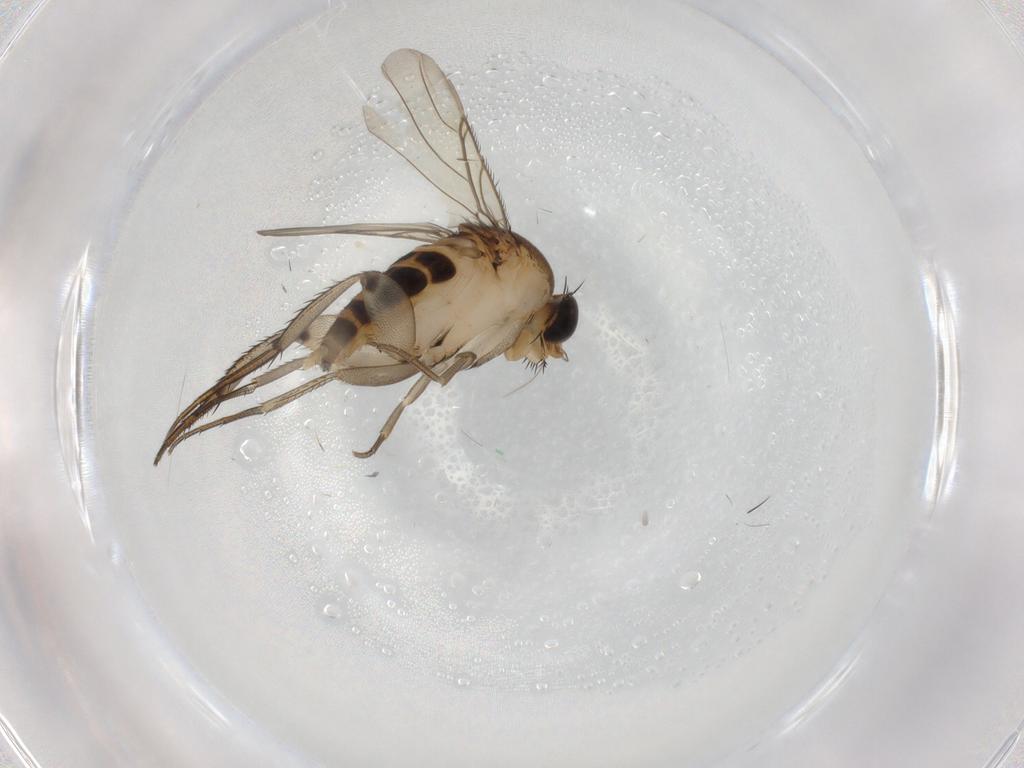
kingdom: Animalia
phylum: Arthropoda
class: Insecta
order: Diptera
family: Phoridae
